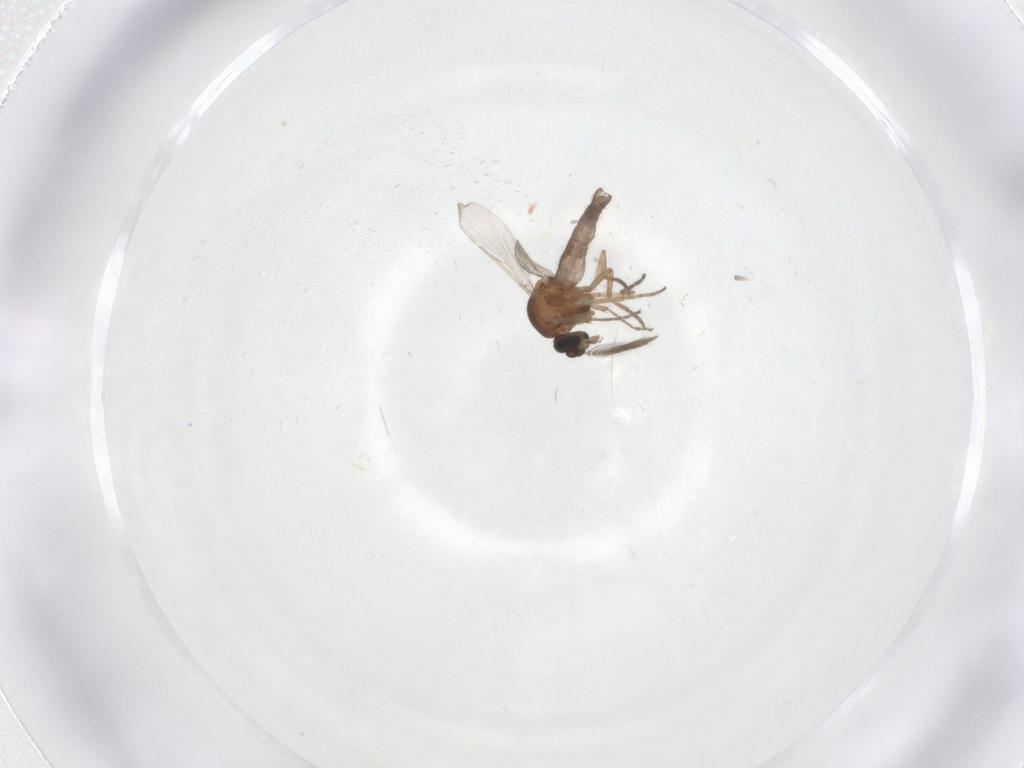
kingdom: Animalia
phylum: Arthropoda
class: Insecta
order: Diptera
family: Ceratopogonidae
